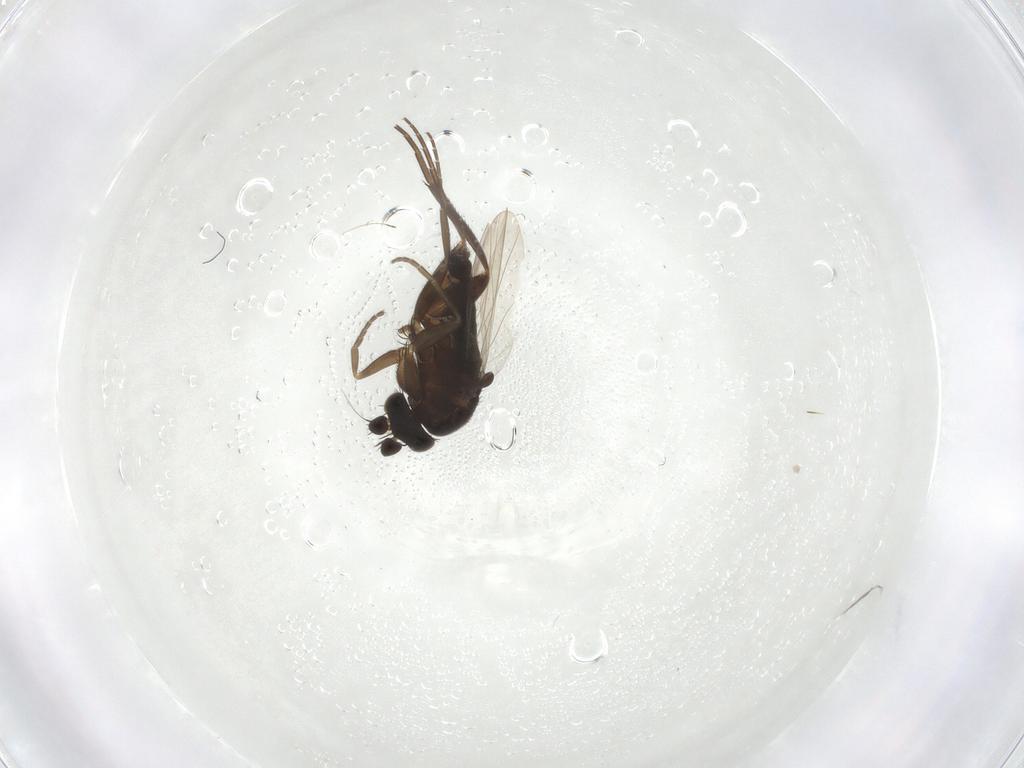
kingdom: Animalia
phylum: Arthropoda
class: Insecta
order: Diptera
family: Phoridae
